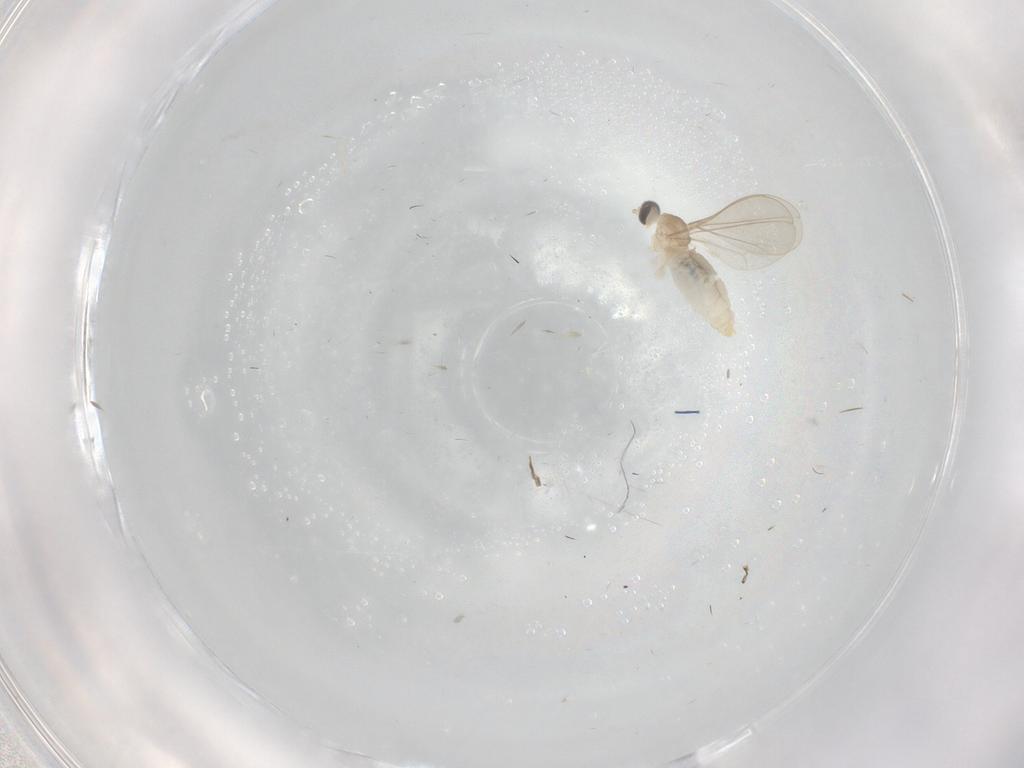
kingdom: Animalia
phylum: Arthropoda
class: Insecta
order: Diptera
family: Cecidomyiidae
